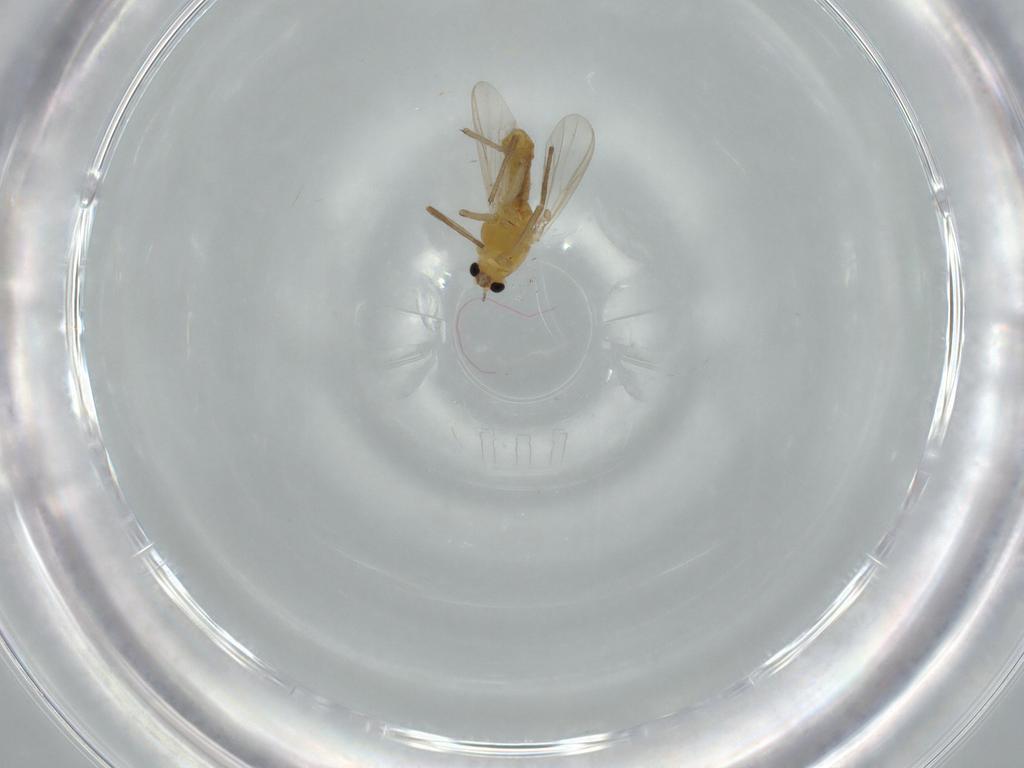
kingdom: Animalia
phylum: Arthropoda
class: Insecta
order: Diptera
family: Chironomidae
